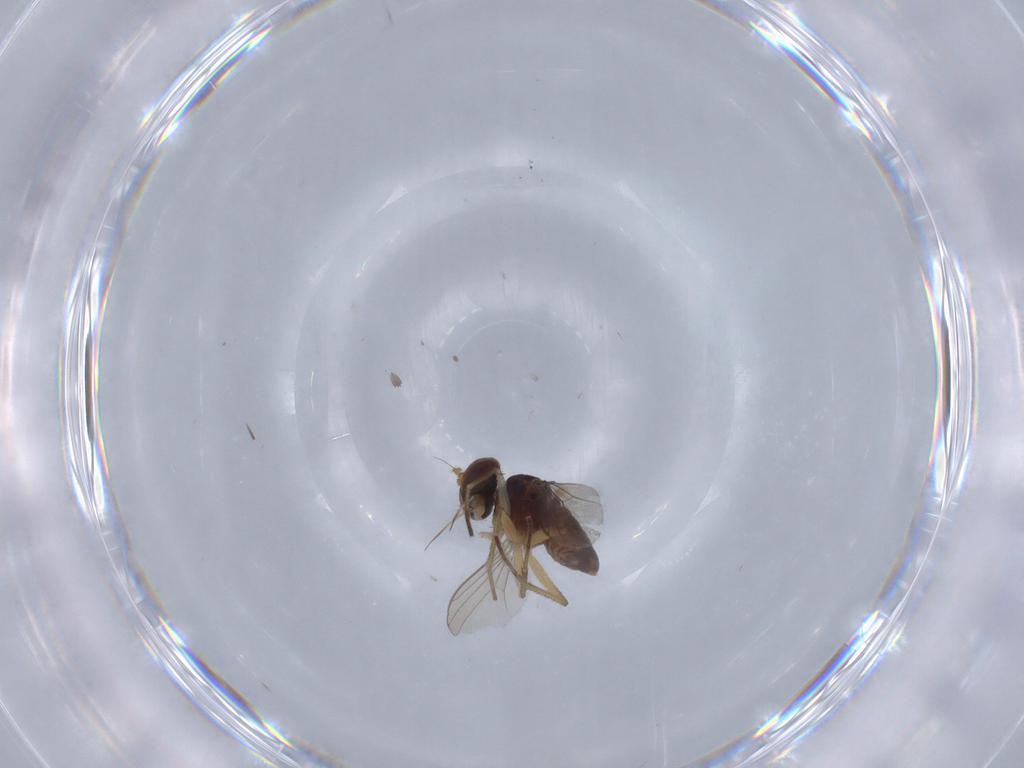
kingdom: Animalia
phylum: Arthropoda
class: Insecta
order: Diptera
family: Dolichopodidae
